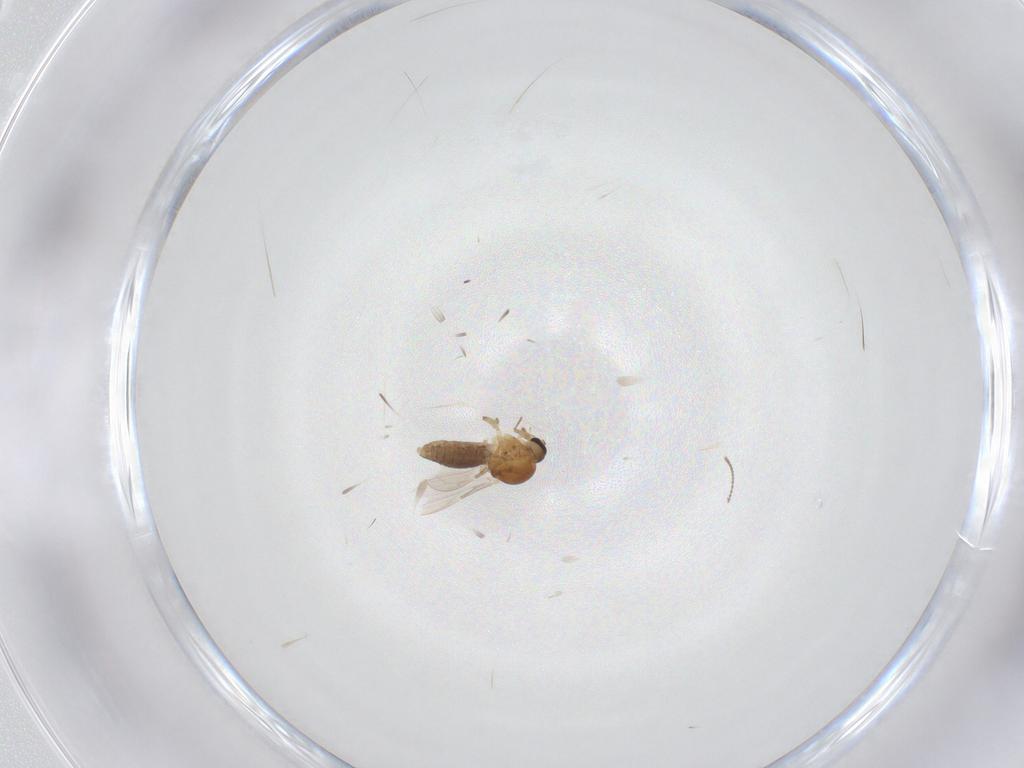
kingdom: Animalia
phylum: Arthropoda
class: Insecta
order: Diptera
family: Ceratopogonidae
